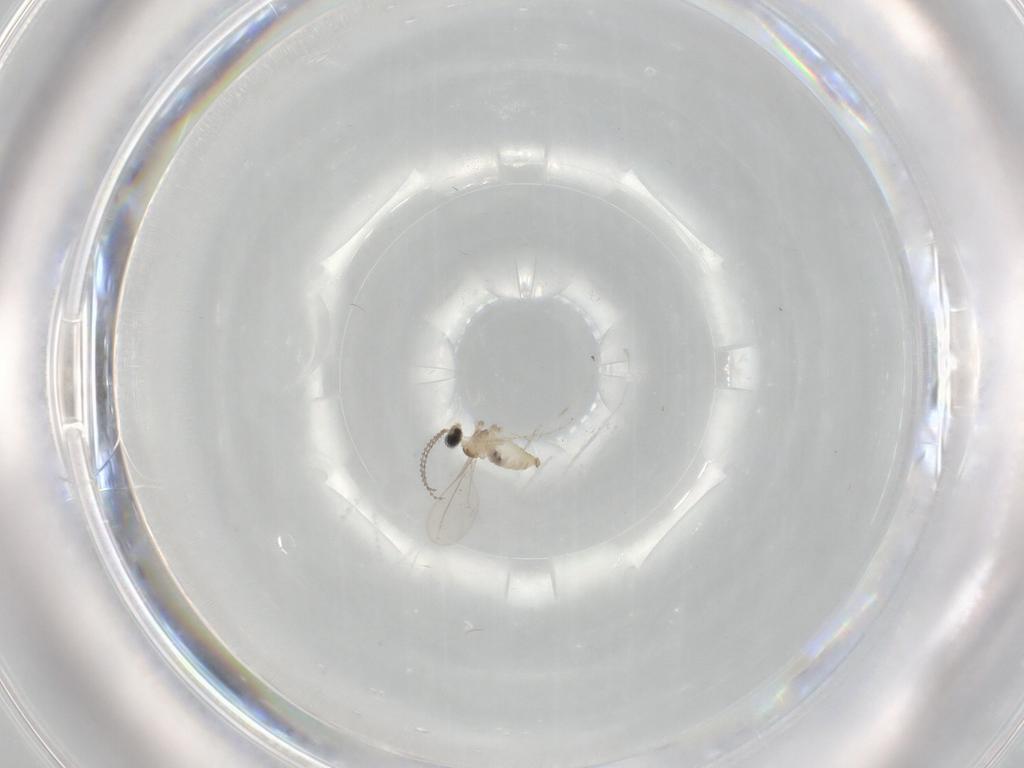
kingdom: Animalia
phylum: Arthropoda
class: Insecta
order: Diptera
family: Cecidomyiidae
